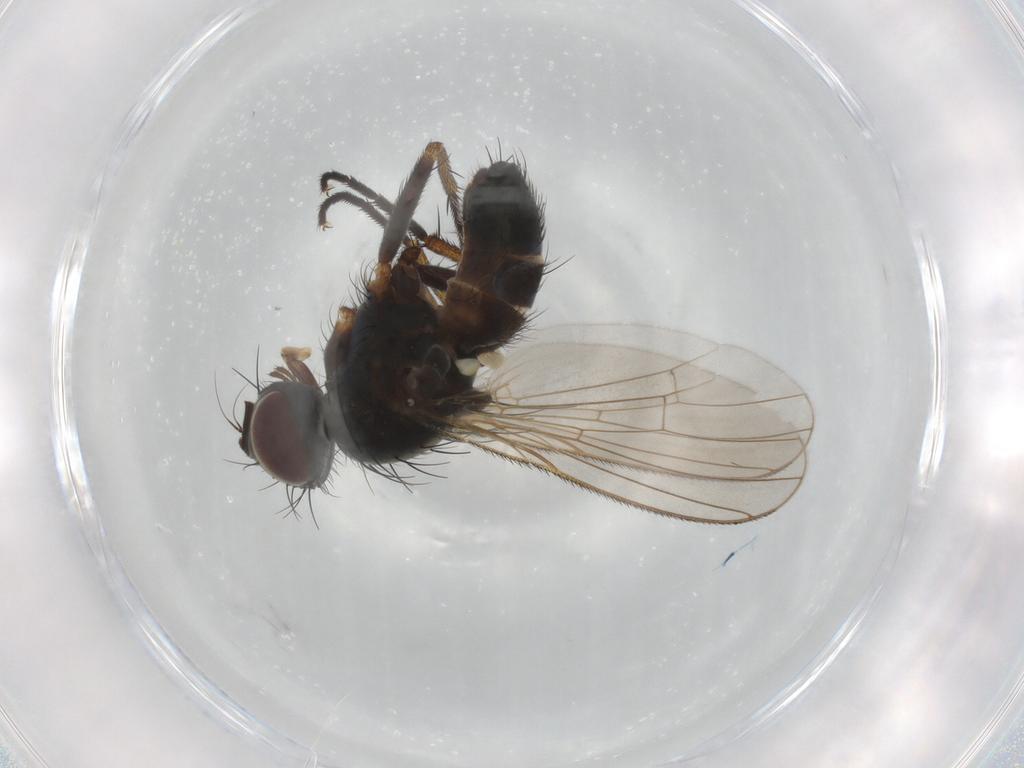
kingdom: Animalia
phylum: Arthropoda
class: Insecta
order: Diptera
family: Muscidae
